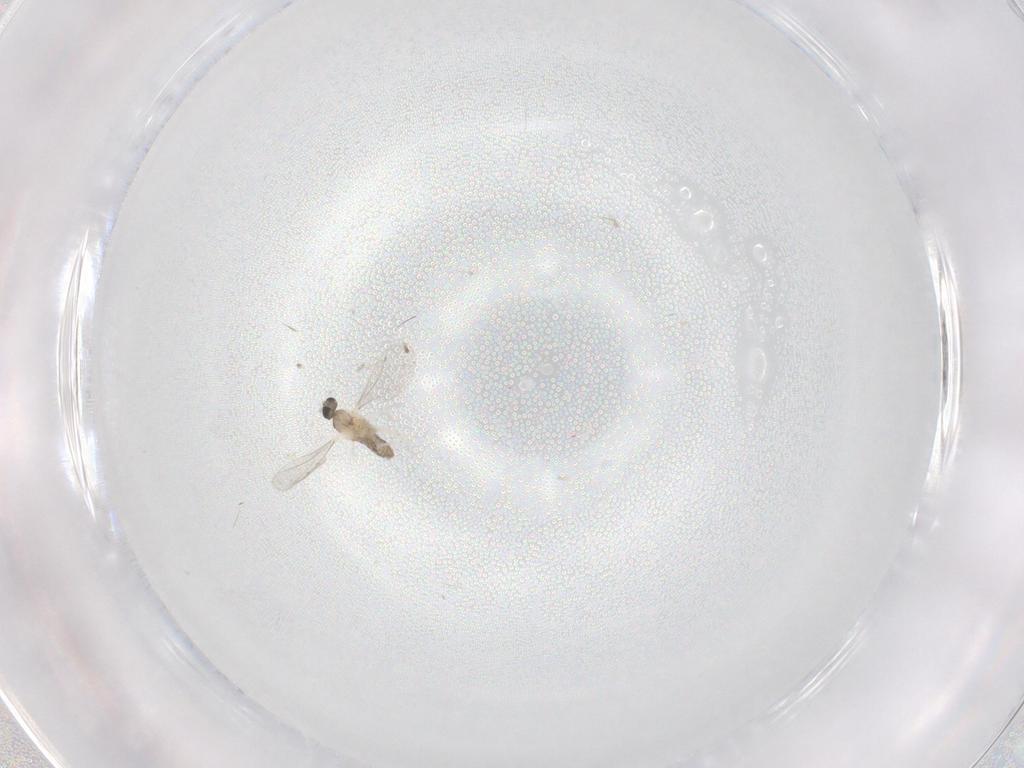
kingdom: Animalia
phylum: Arthropoda
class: Insecta
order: Diptera
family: Cecidomyiidae
